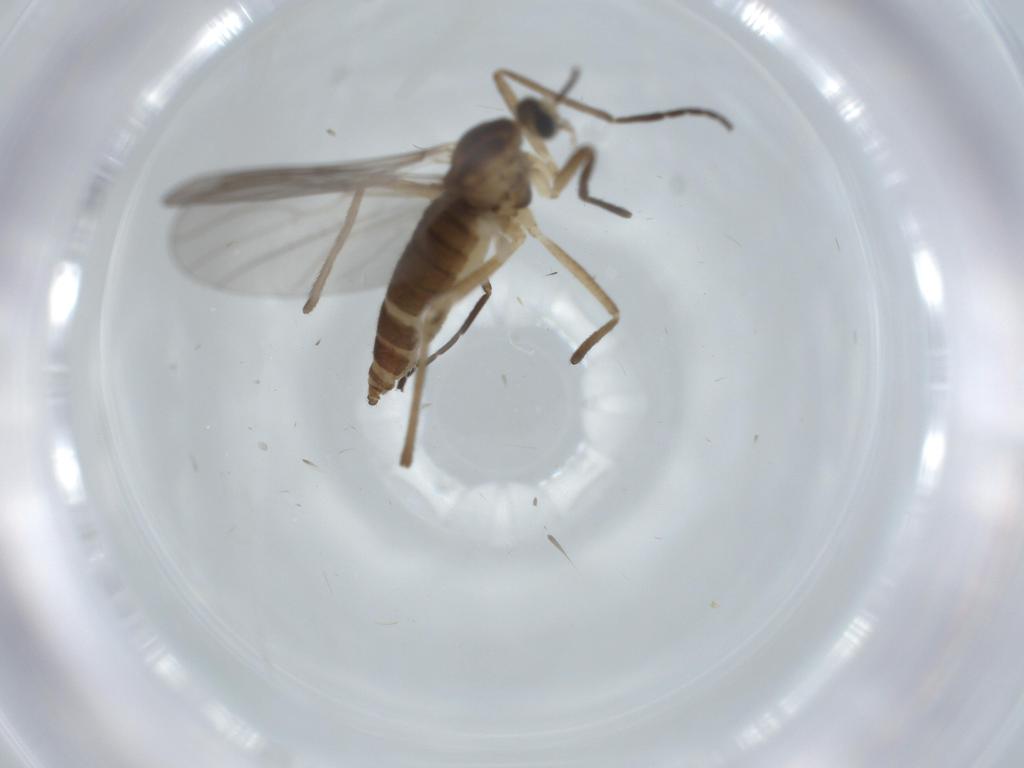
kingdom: Animalia
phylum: Arthropoda
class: Insecta
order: Diptera
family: Cecidomyiidae
